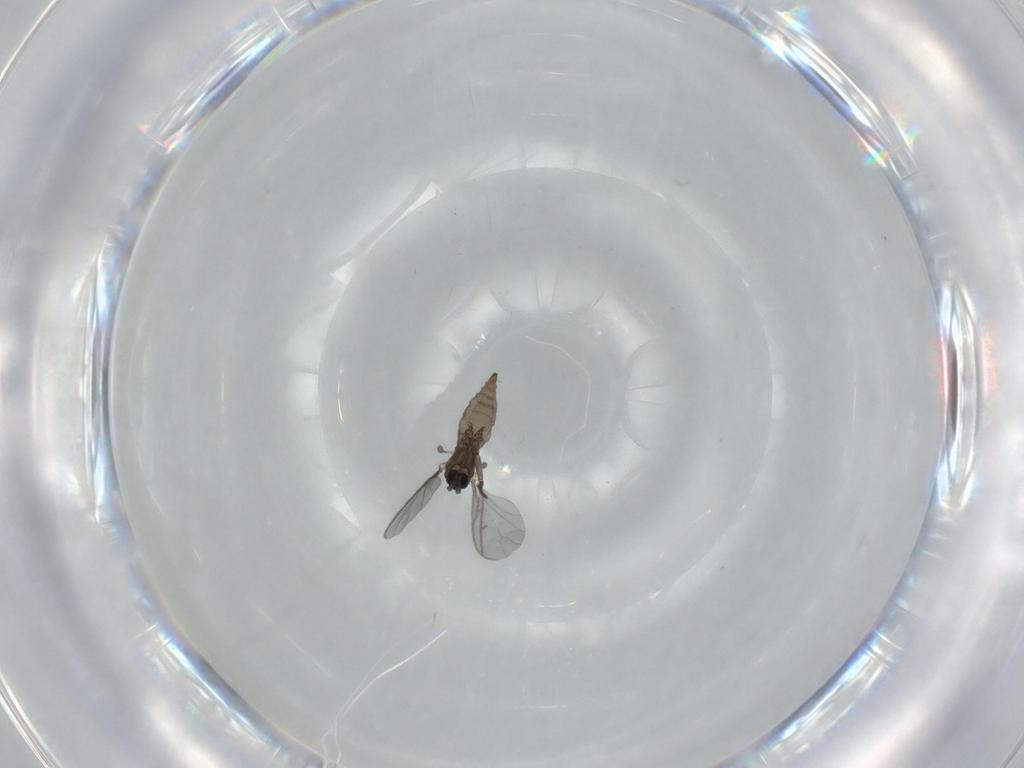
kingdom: Animalia
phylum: Arthropoda
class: Insecta
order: Diptera
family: Sciaridae
